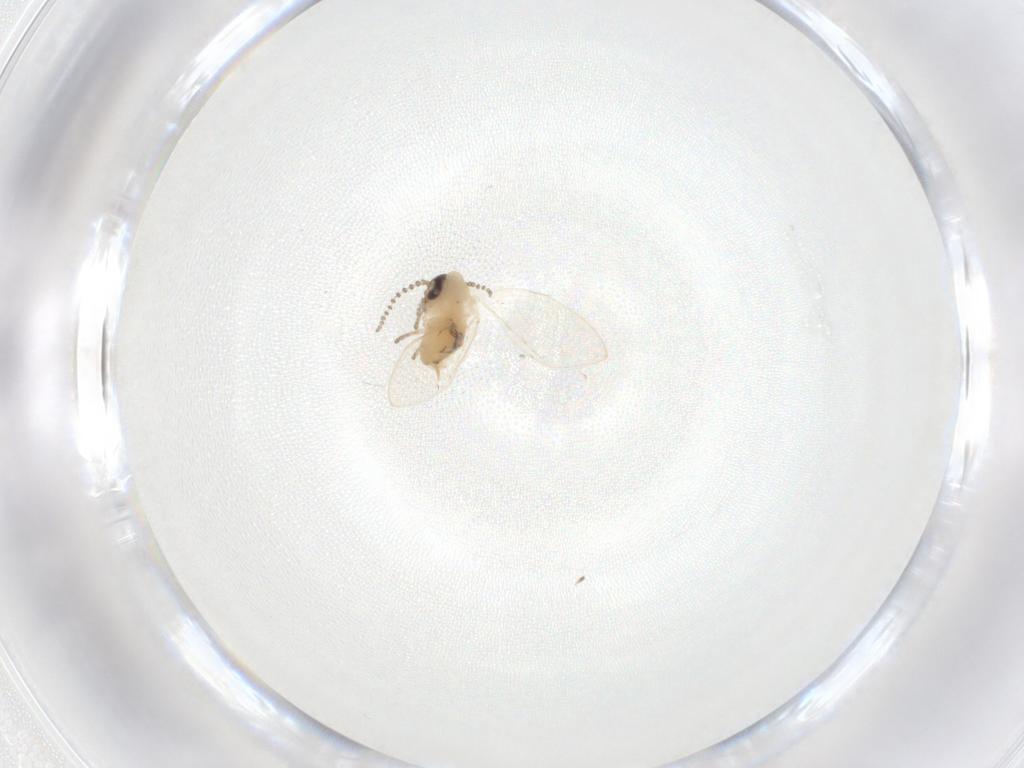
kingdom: Animalia
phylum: Arthropoda
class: Insecta
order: Diptera
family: Psychodidae
